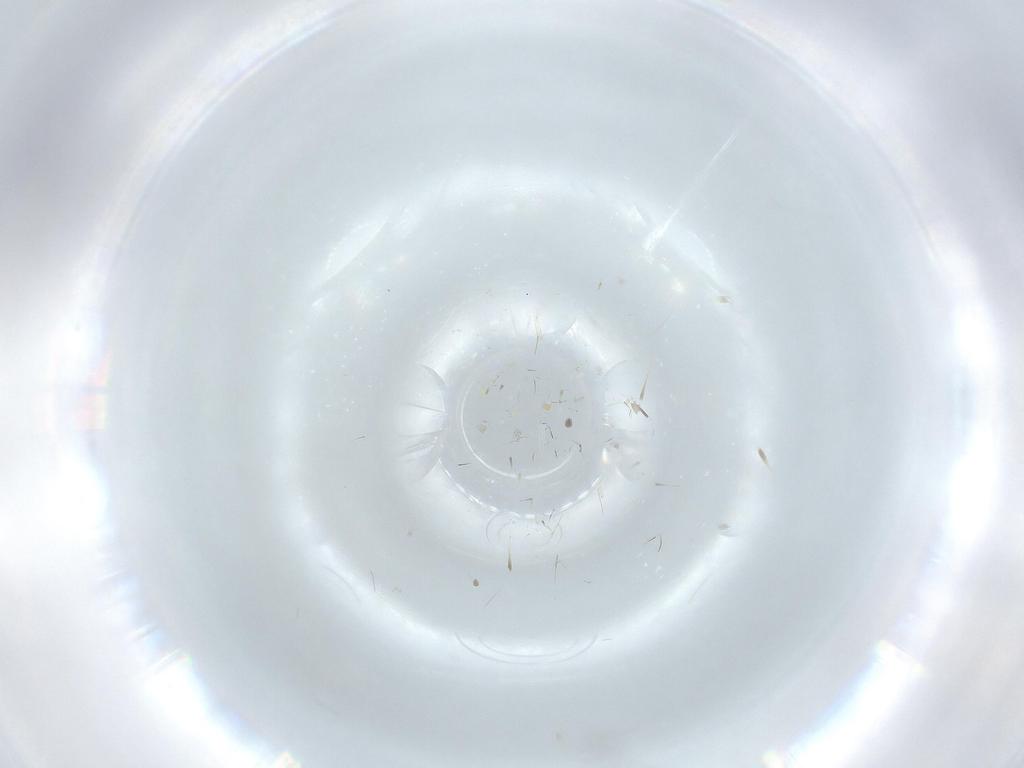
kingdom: Animalia
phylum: Arthropoda
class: Insecta
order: Diptera
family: Cecidomyiidae
